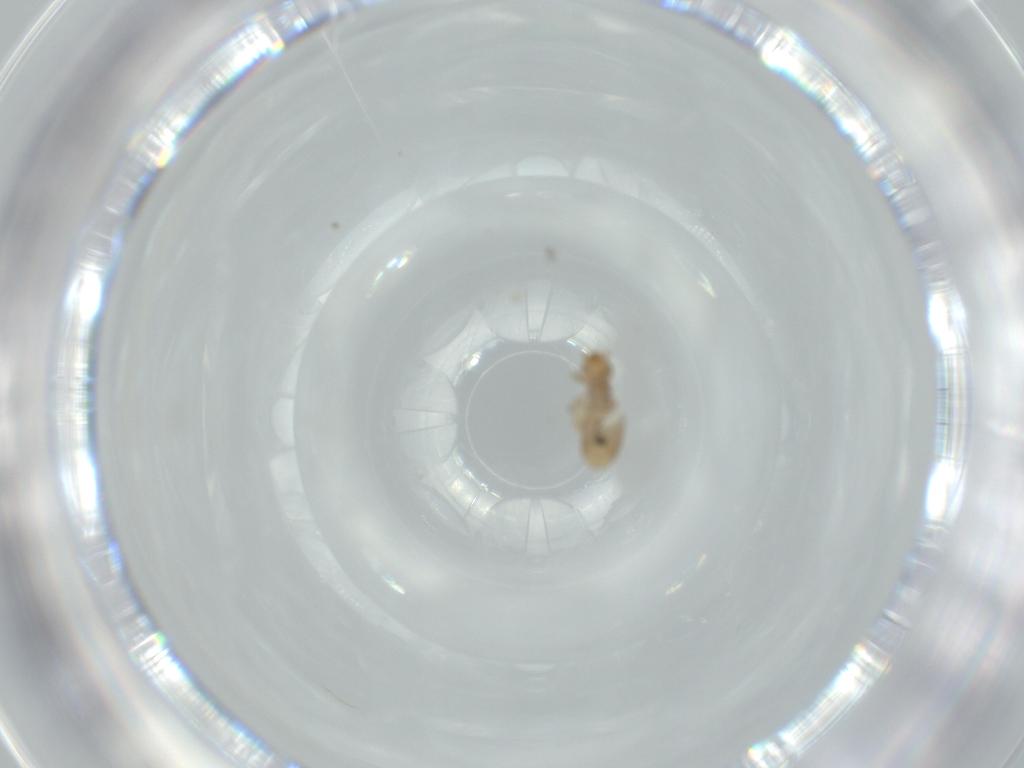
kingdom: Animalia
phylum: Arthropoda
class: Insecta
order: Psocodea
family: Liposcelididae
